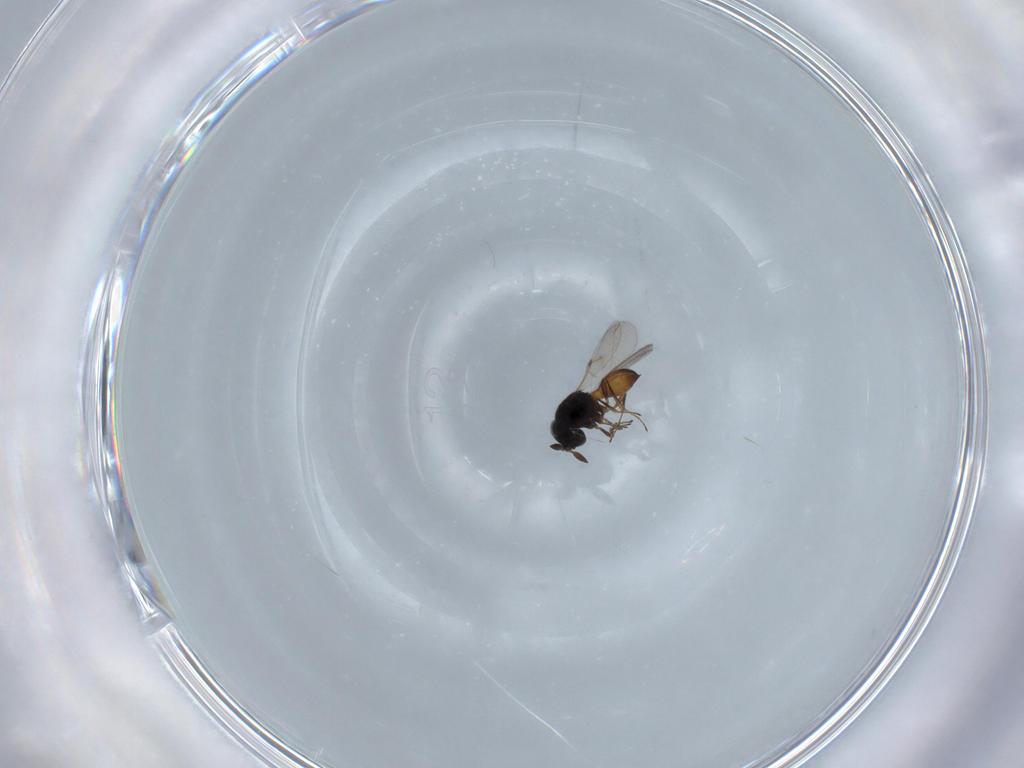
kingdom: Animalia
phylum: Arthropoda
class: Insecta
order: Hymenoptera
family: Scelionidae
